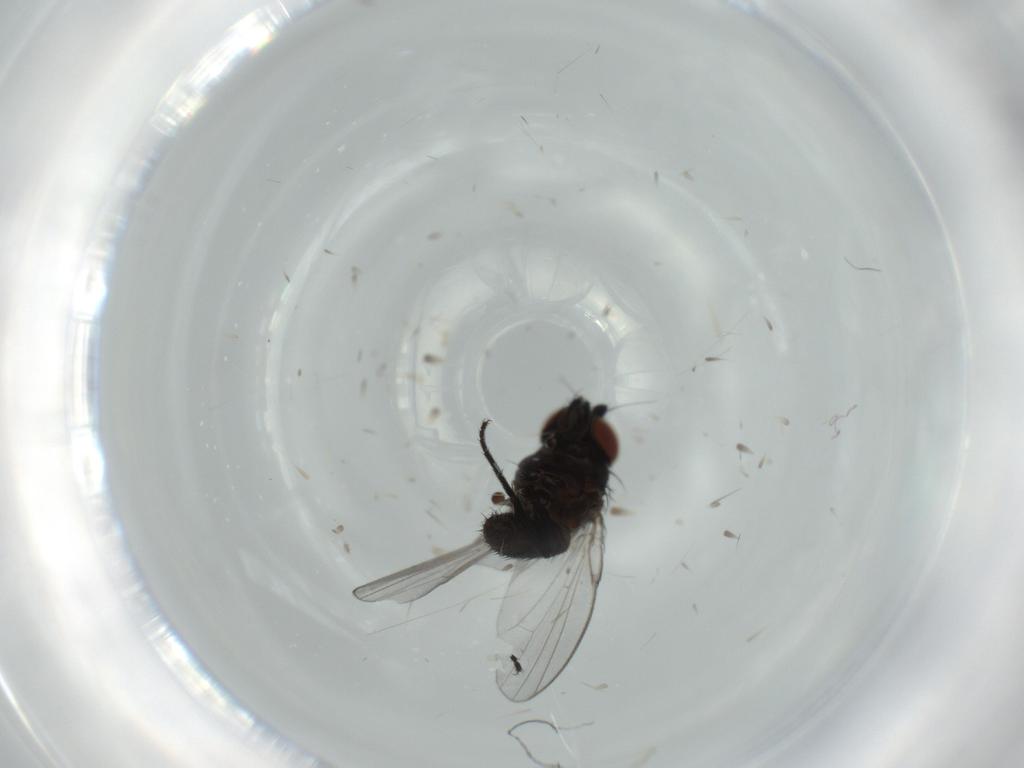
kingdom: Animalia
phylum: Arthropoda
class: Insecta
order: Diptera
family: Milichiidae
